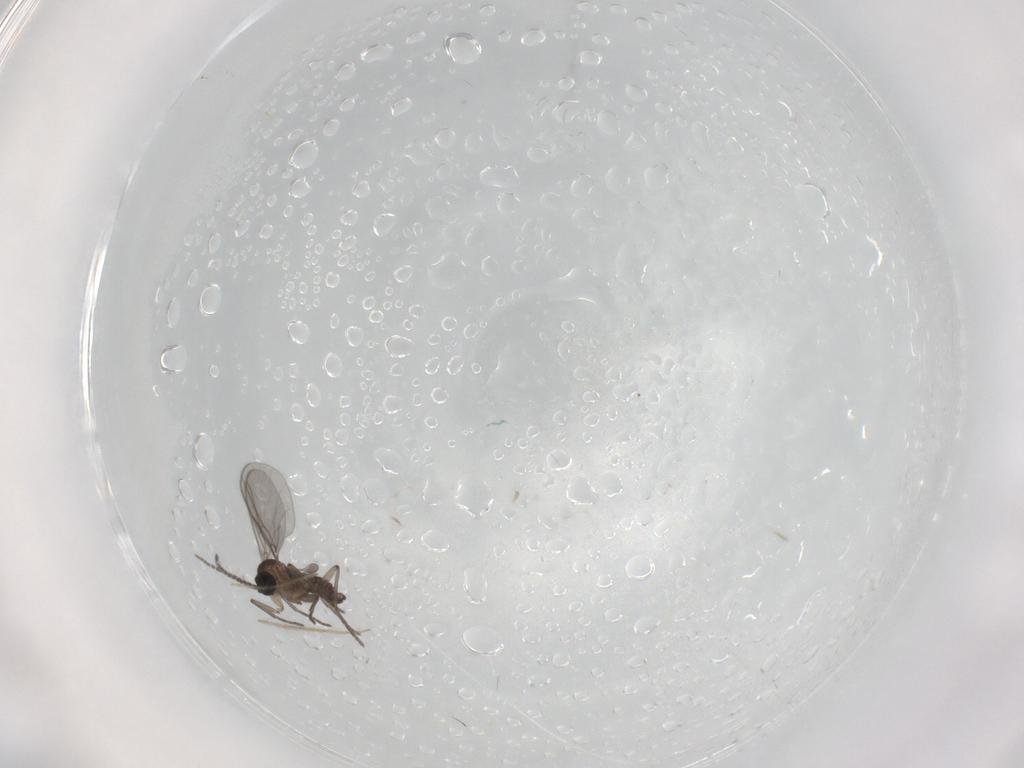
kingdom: Animalia
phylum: Arthropoda
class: Insecta
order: Diptera
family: Chironomidae
